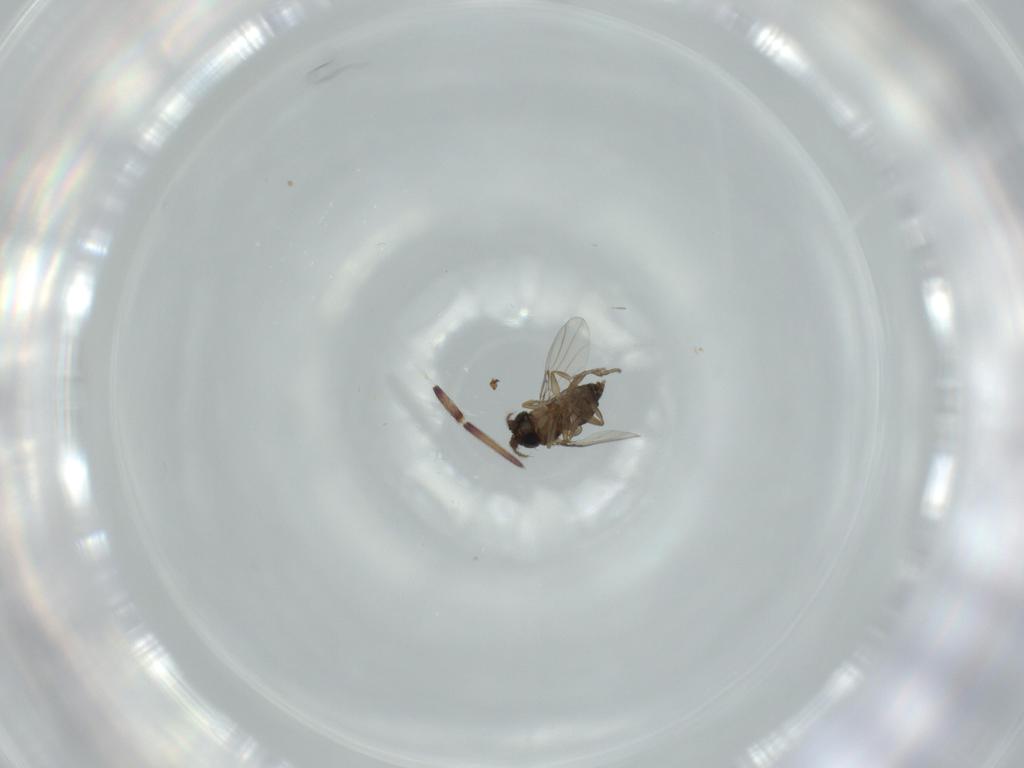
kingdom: Animalia
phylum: Arthropoda
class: Insecta
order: Diptera
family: Phoridae
